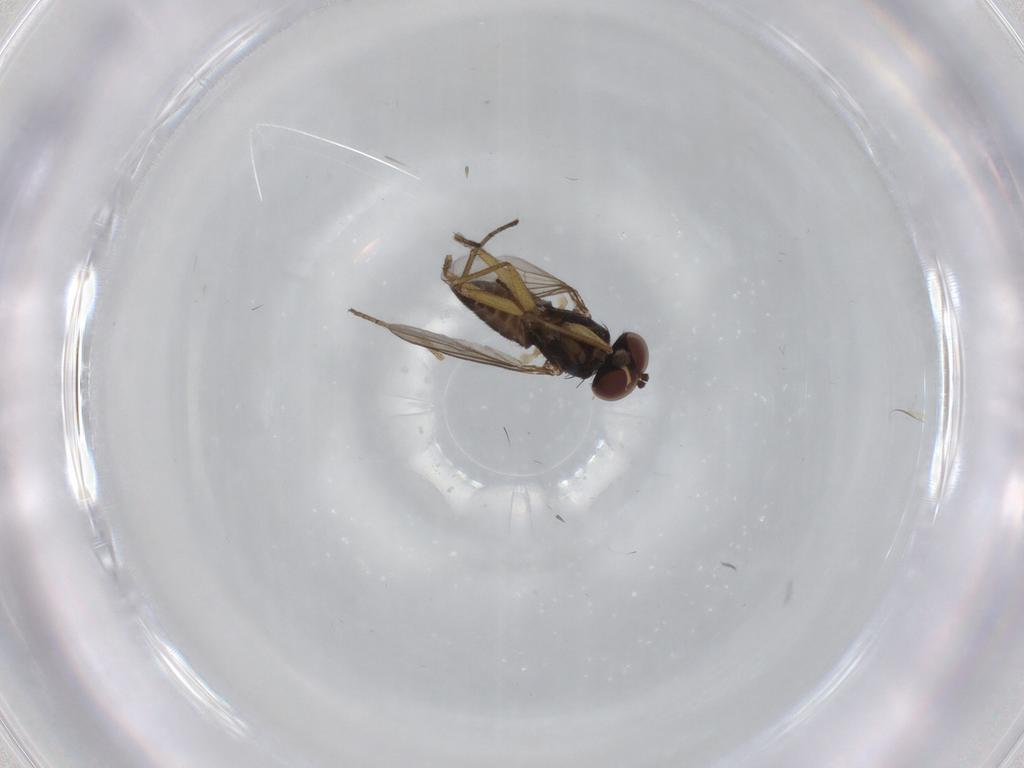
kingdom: Animalia
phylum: Arthropoda
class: Insecta
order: Diptera
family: Dolichopodidae
